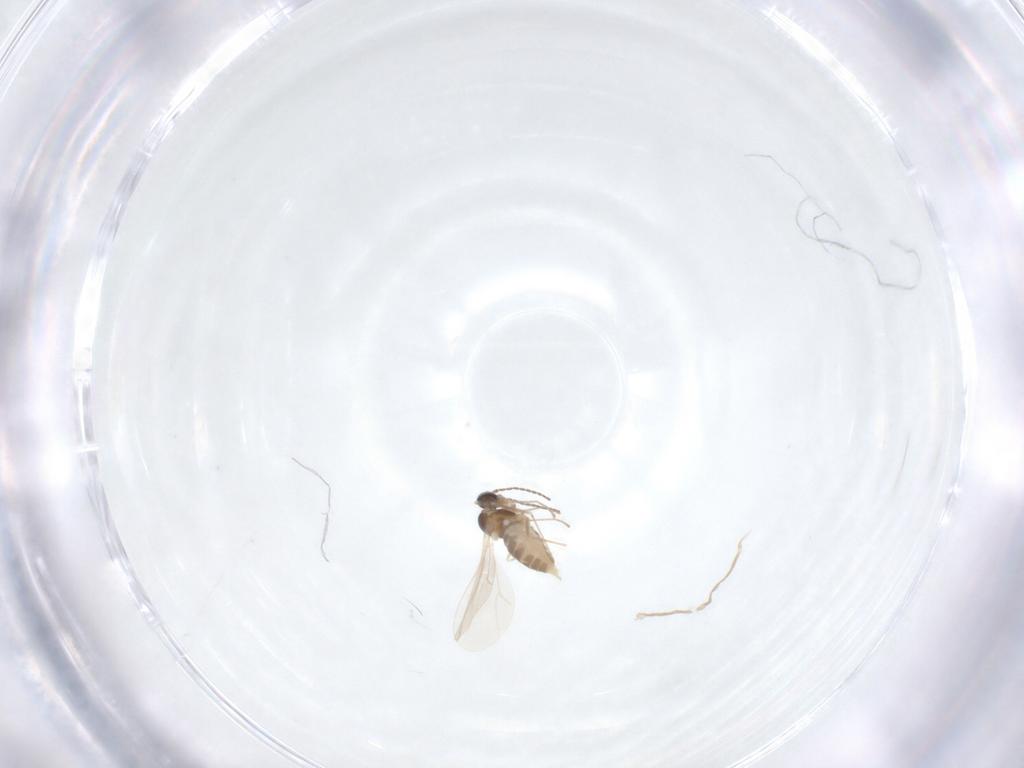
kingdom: Animalia
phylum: Arthropoda
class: Insecta
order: Diptera
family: Cecidomyiidae
